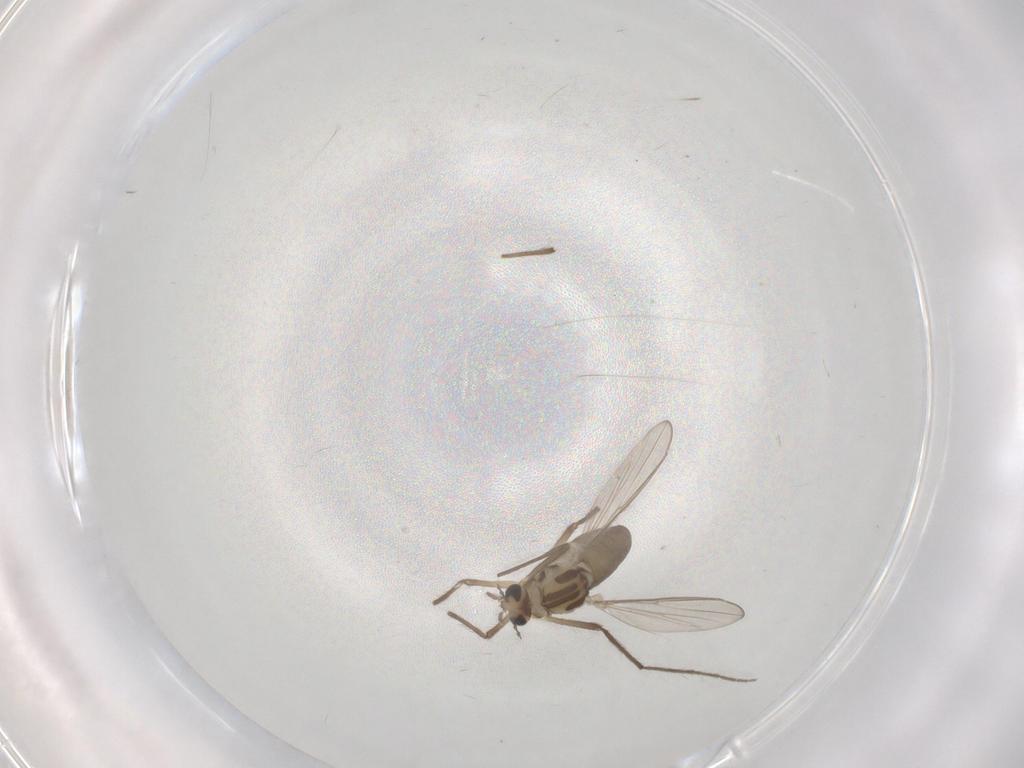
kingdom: Animalia
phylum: Arthropoda
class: Insecta
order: Diptera
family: Chironomidae
